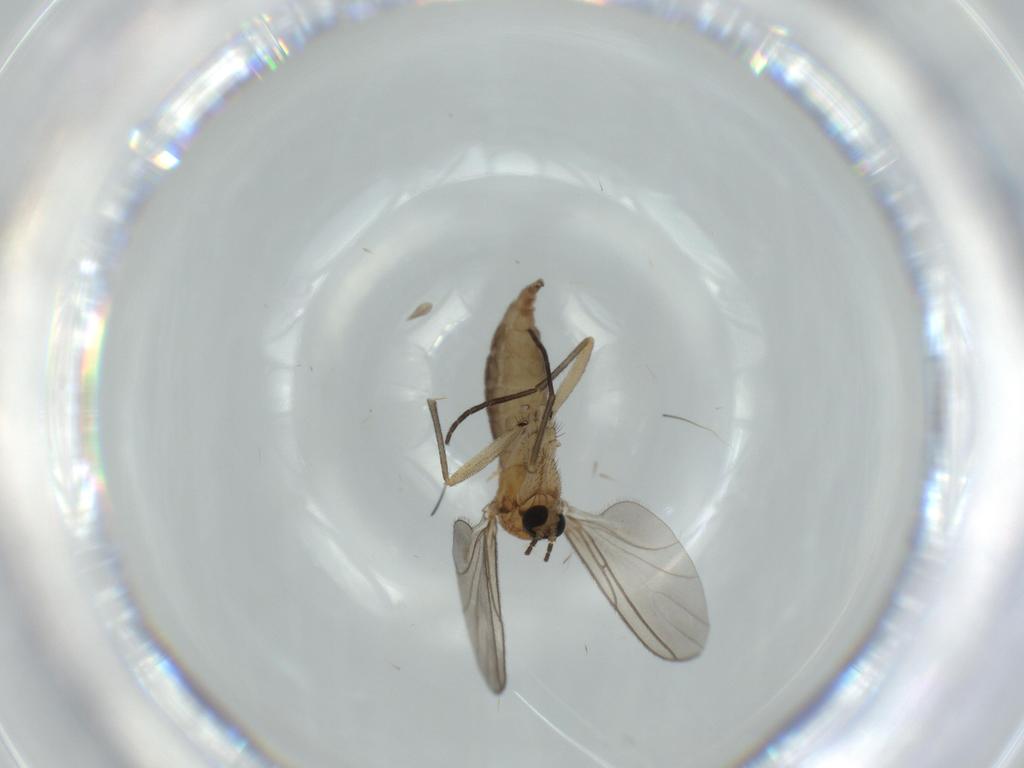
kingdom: Animalia
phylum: Arthropoda
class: Insecta
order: Diptera
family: Sciaridae
